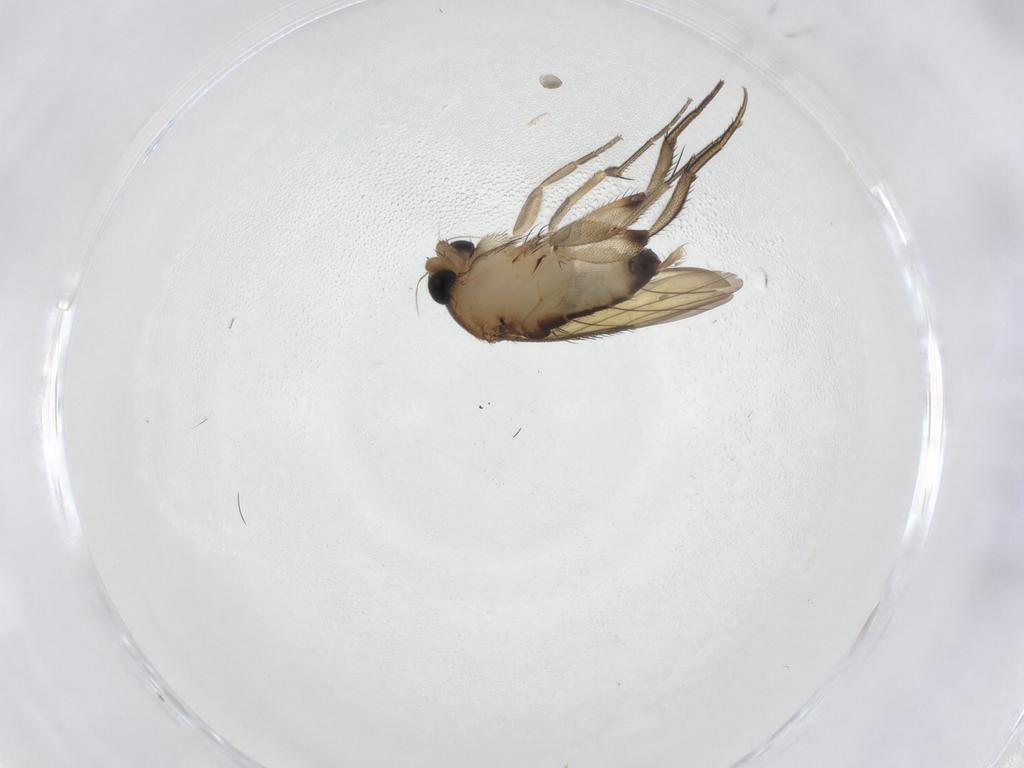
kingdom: Animalia
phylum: Arthropoda
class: Insecta
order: Diptera
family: Phoridae
